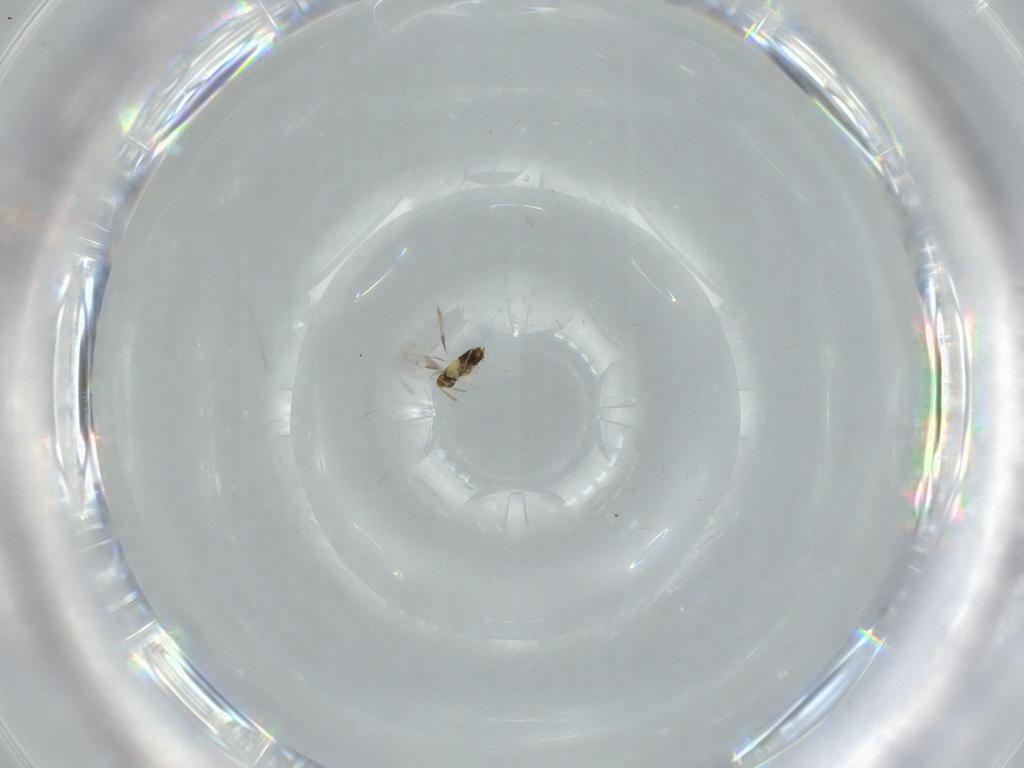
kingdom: Animalia
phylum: Arthropoda
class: Insecta
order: Hymenoptera
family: Aphelinidae
